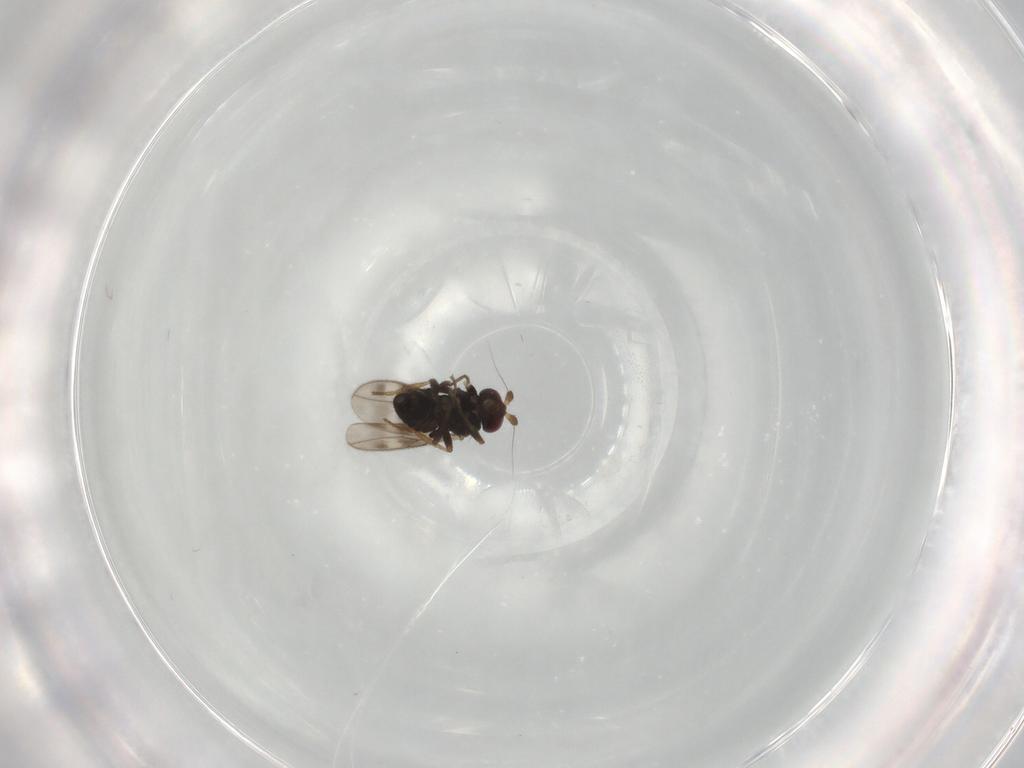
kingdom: Animalia
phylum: Arthropoda
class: Insecta
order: Diptera
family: Sphaeroceridae
